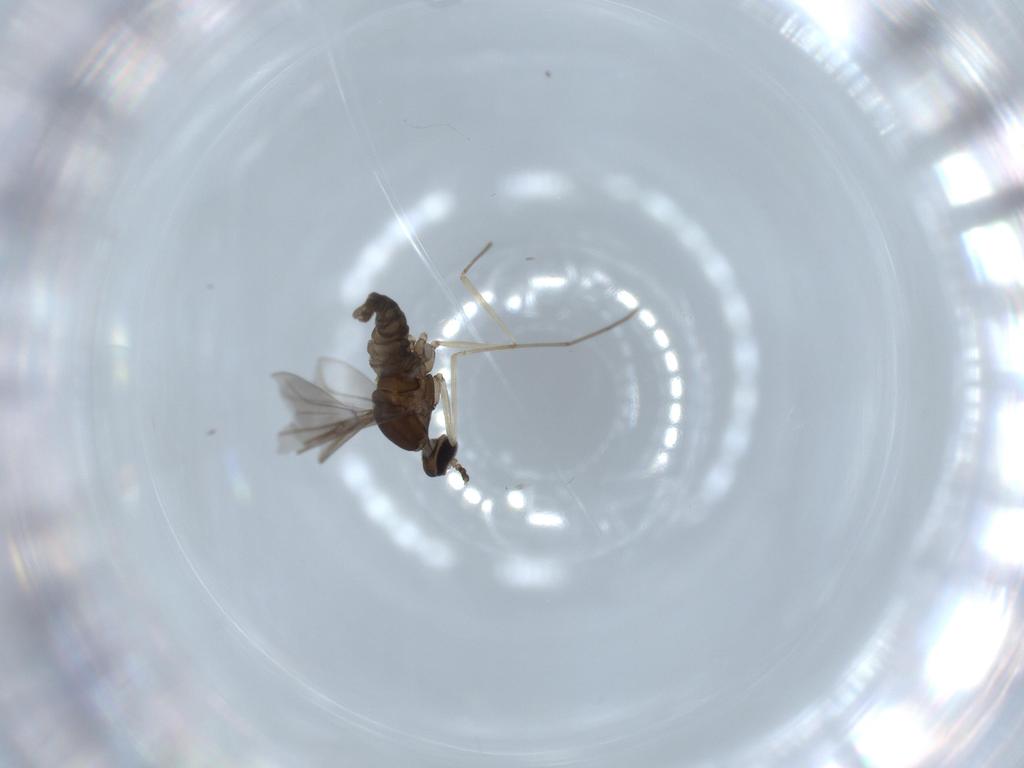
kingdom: Animalia
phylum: Arthropoda
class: Insecta
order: Diptera
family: Cecidomyiidae
